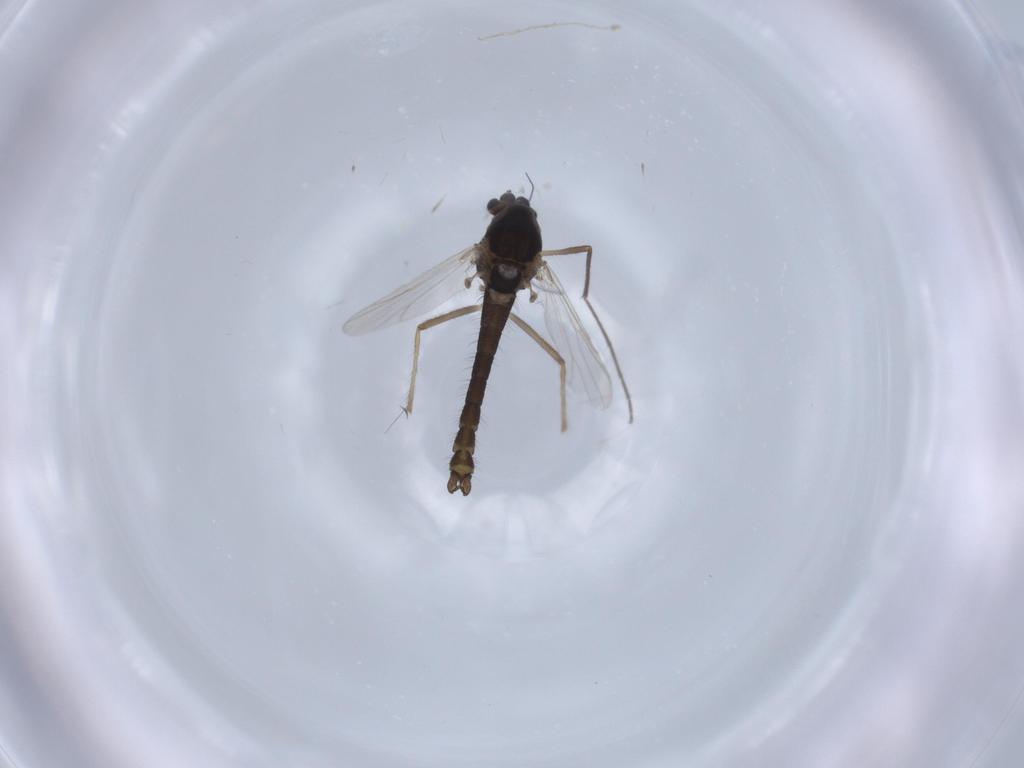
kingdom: Animalia
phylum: Arthropoda
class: Insecta
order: Diptera
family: Chironomidae
